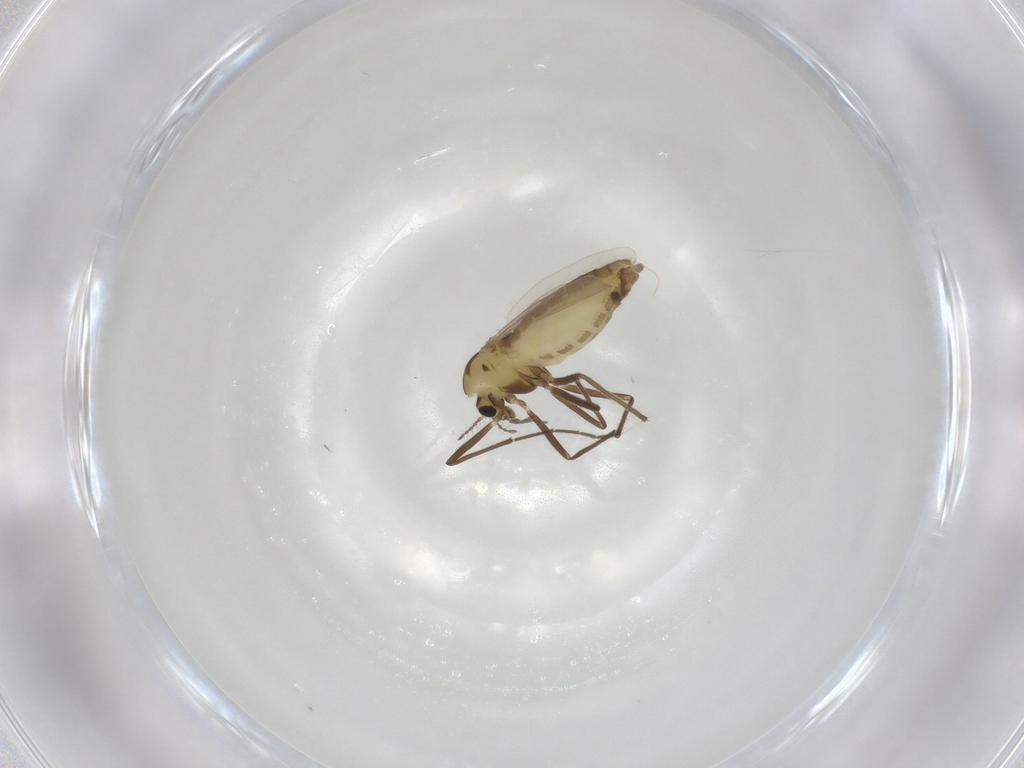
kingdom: Animalia
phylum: Arthropoda
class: Insecta
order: Diptera
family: Chironomidae
